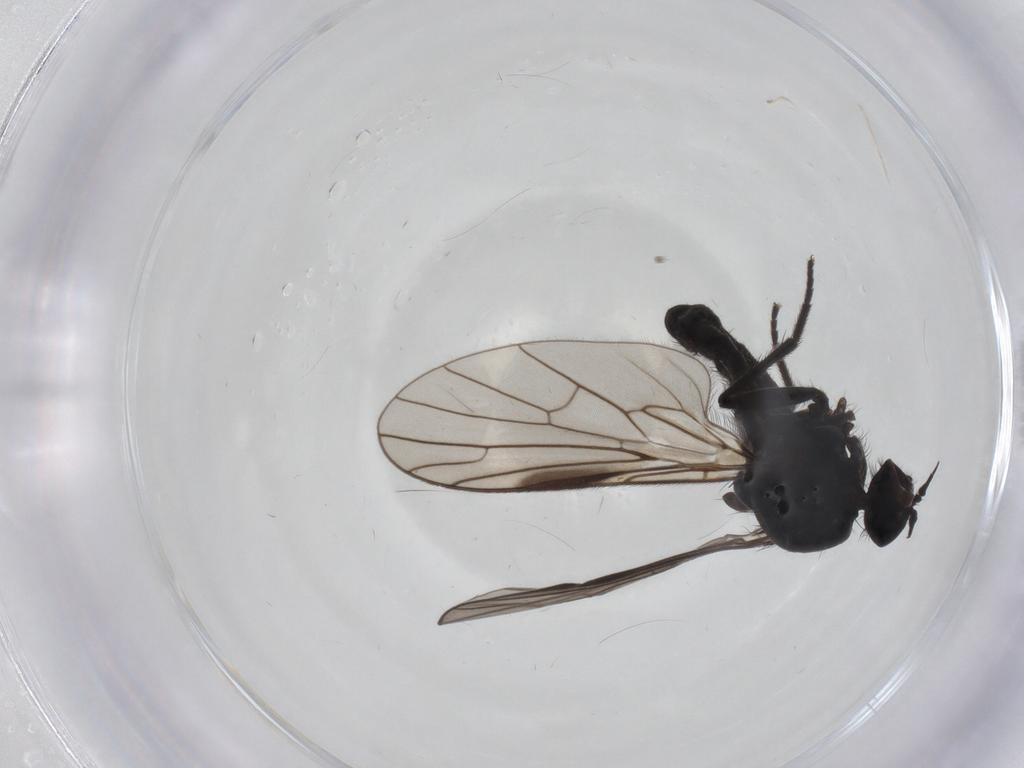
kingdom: Animalia
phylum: Arthropoda
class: Insecta
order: Diptera
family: Empididae
